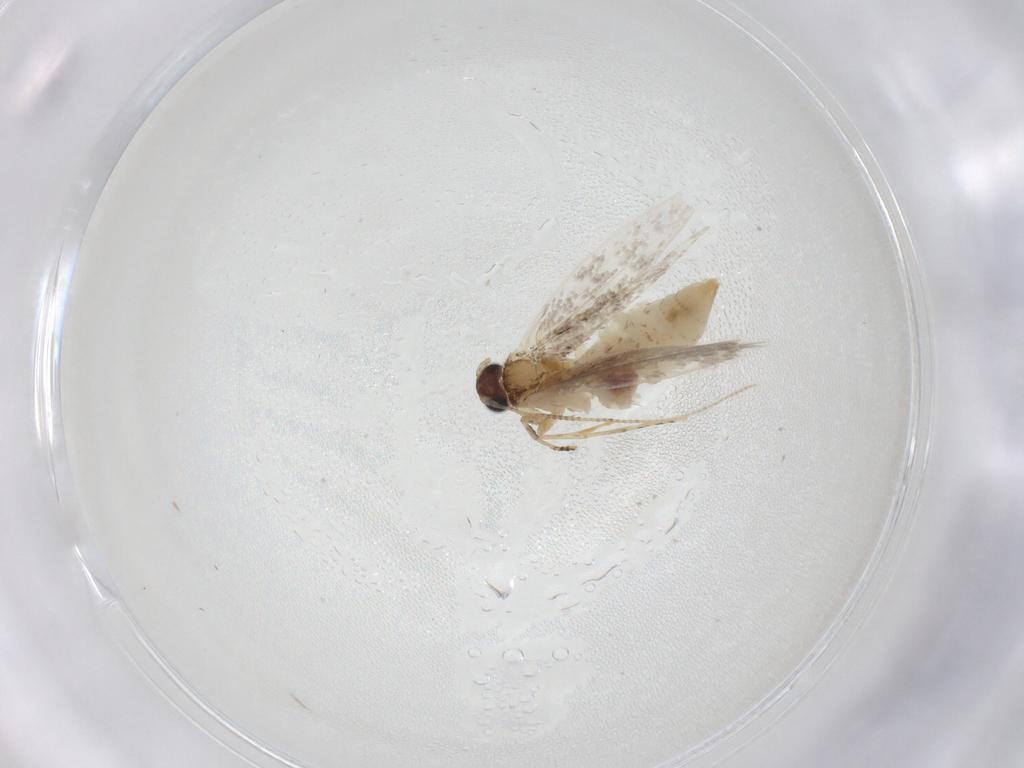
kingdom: Animalia
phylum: Arthropoda
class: Insecta
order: Lepidoptera
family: Tineidae
